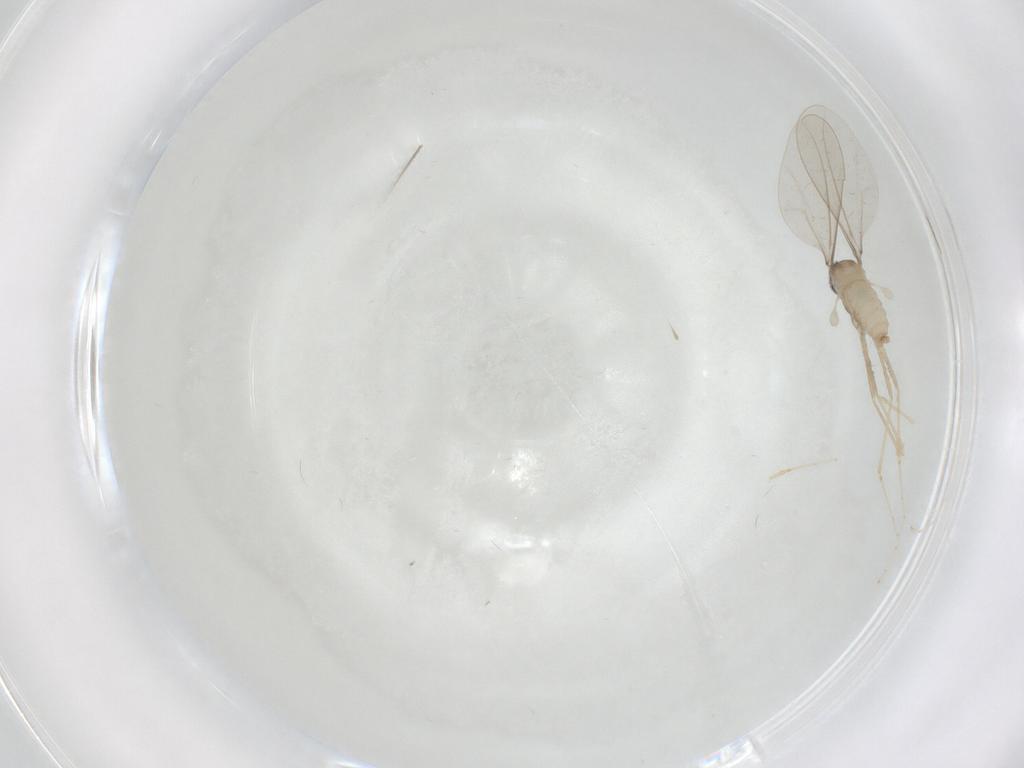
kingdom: Animalia
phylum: Arthropoda
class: Insecta
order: Diptera
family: Cecidomyiidae
